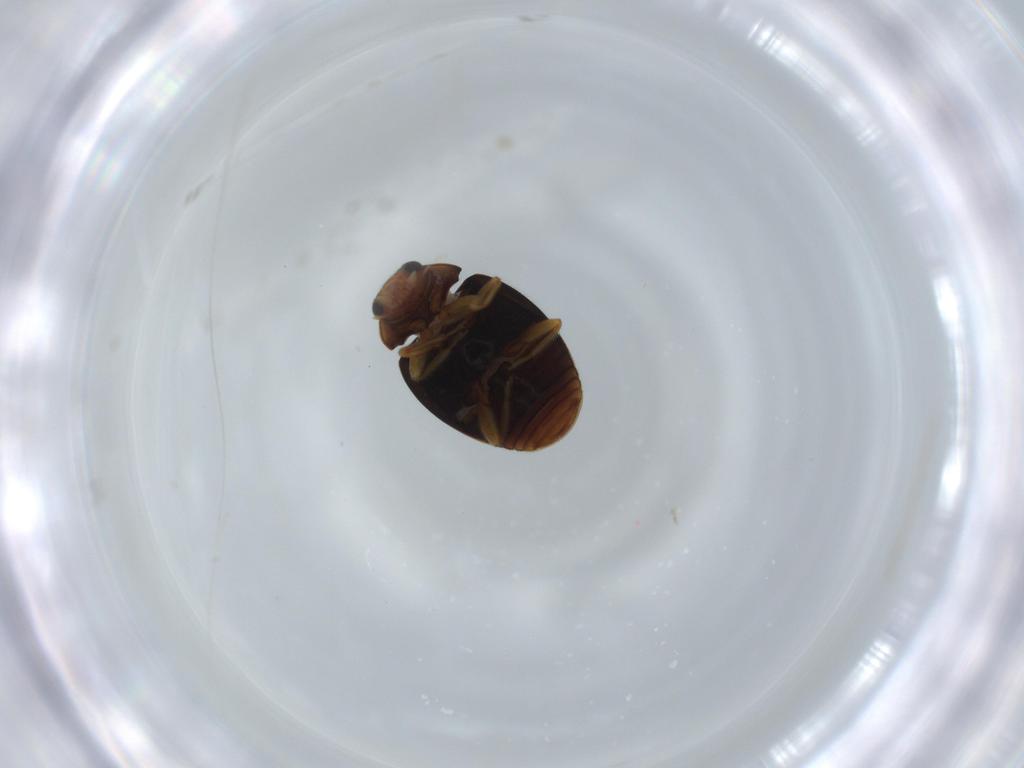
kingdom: Animalia
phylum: Arthropoda
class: Insecta
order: Coleoptera
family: Coccinellidae
